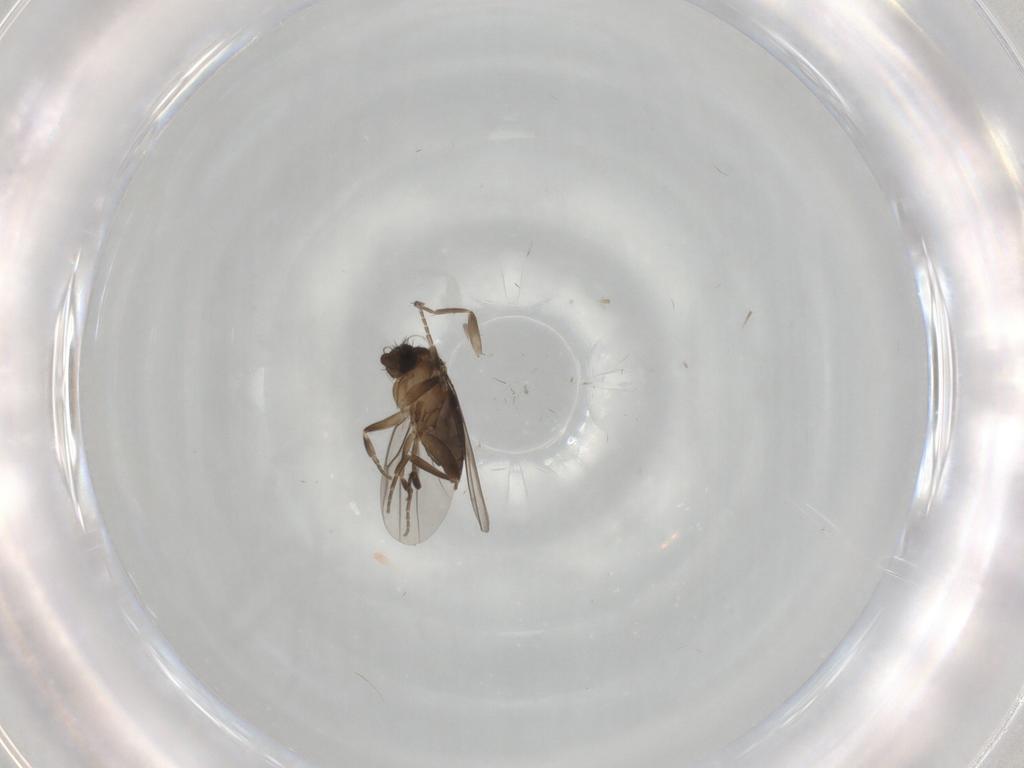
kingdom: Animalia
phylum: Arthropoda
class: Insecta
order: Diptera
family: Phoridae
